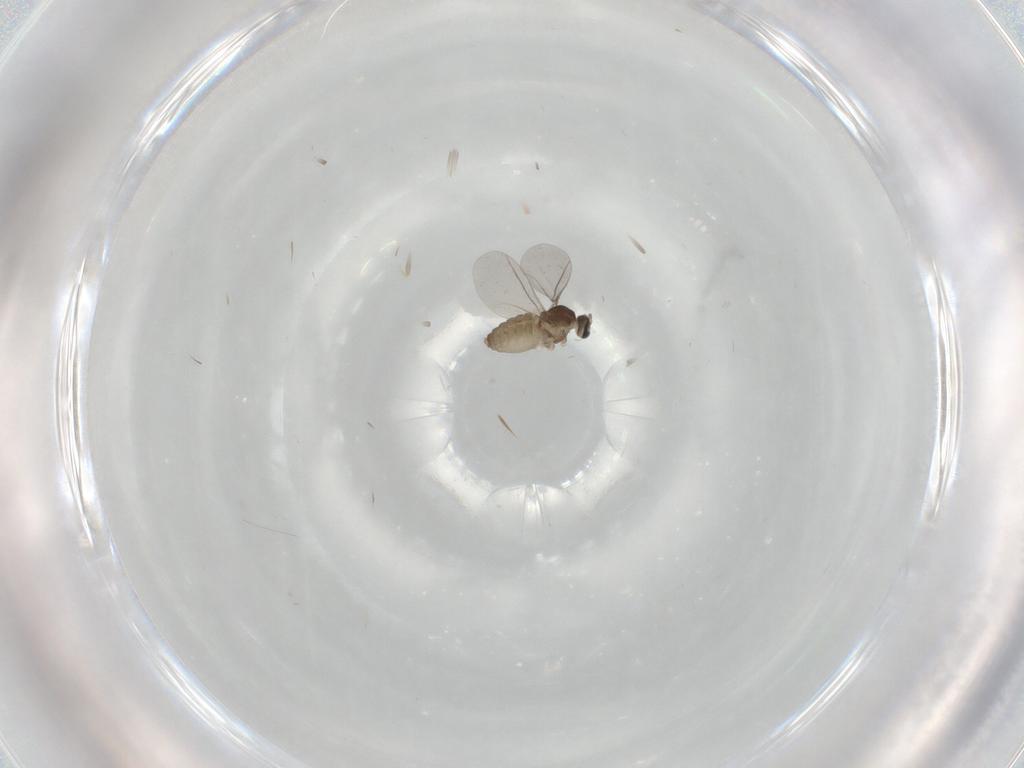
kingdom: Animalia
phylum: Arthropoda
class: Insecta
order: Diptera
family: Cecidomyiidae
